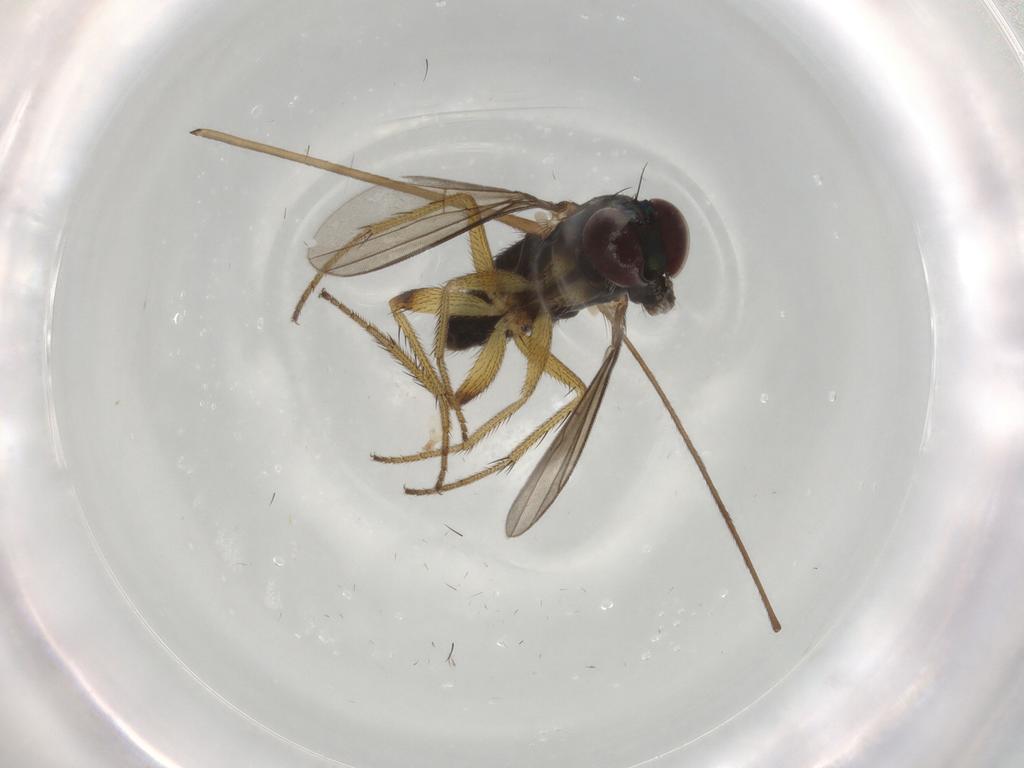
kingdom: Animalia
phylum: Arthropoda
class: Insecta
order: Diptera
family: Dolichopodidae
